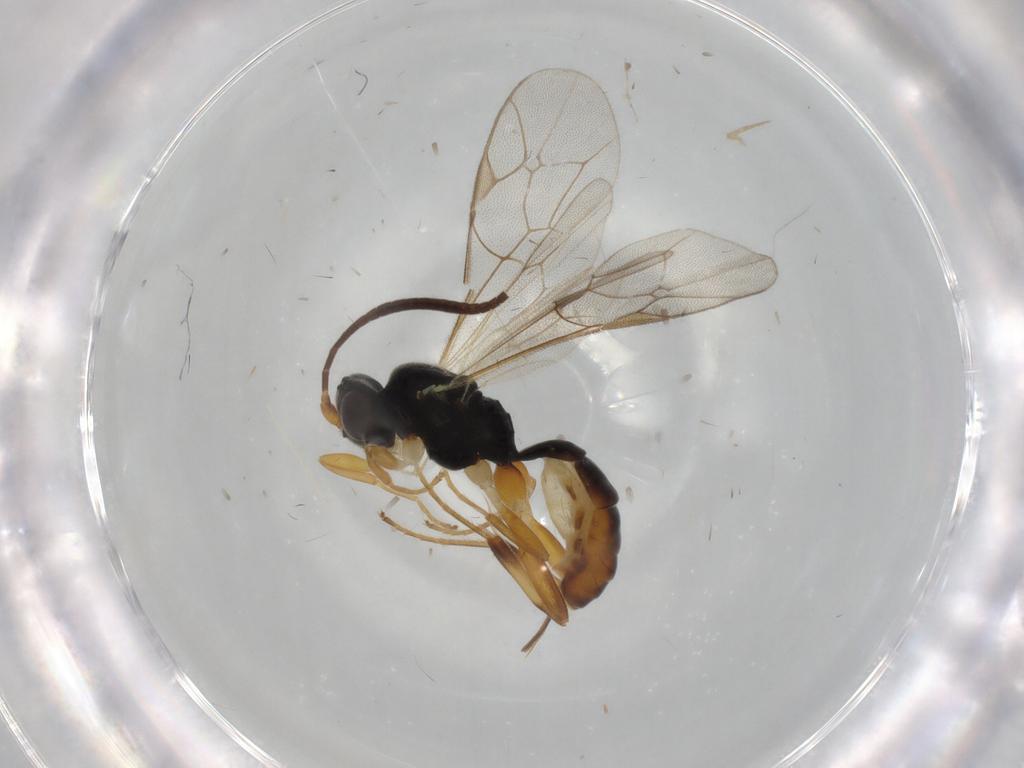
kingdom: Animalia
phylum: Arthropoda
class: Insecta
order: Hymenoptera
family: Ichneumonidae
